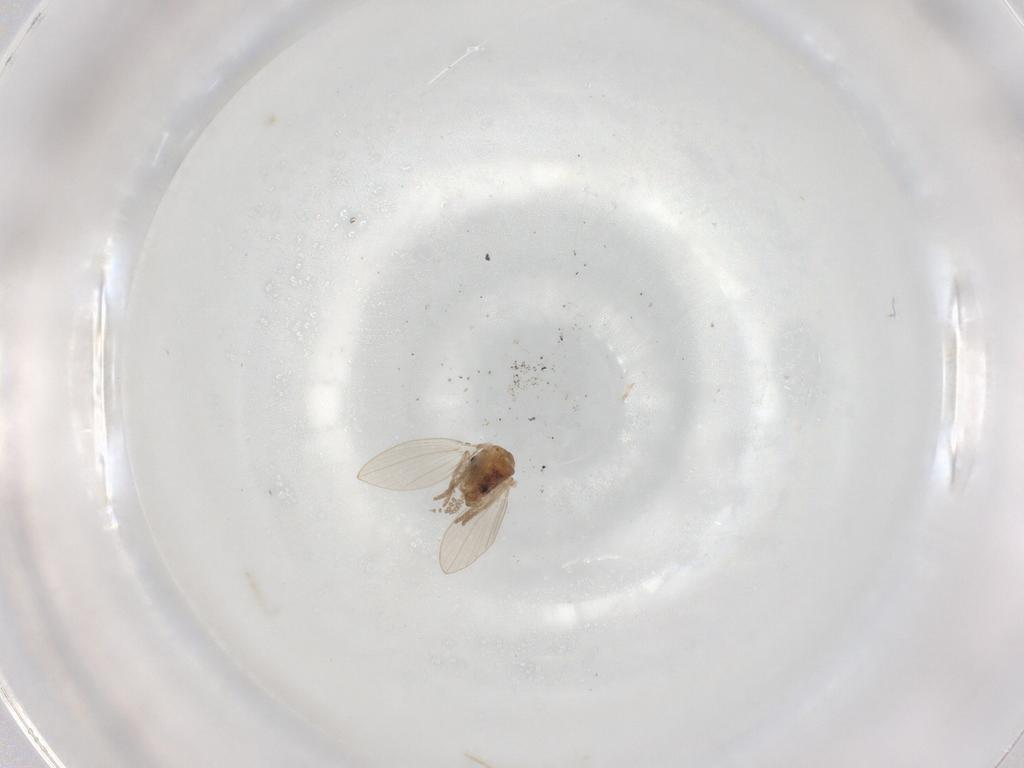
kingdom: Animalia
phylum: Arthropoda
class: Insecta
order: Diptera
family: Psychodidae
